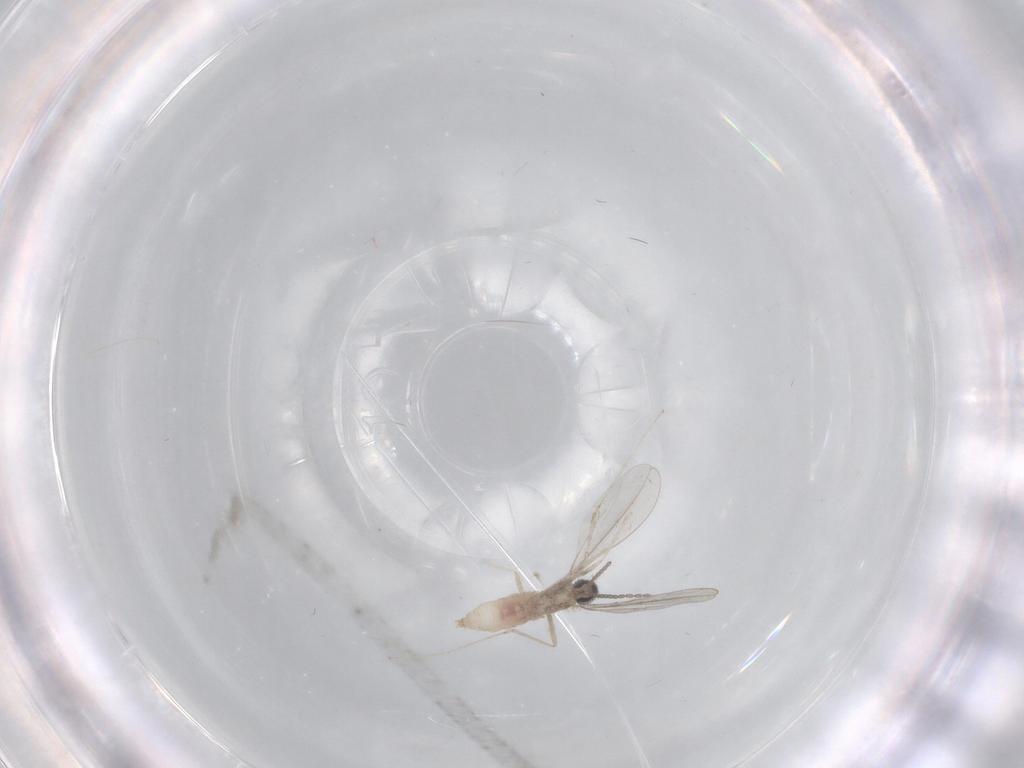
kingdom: Animalia
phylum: Arthropoda
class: Insecta
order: Diptera
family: Cecidomyiidae
